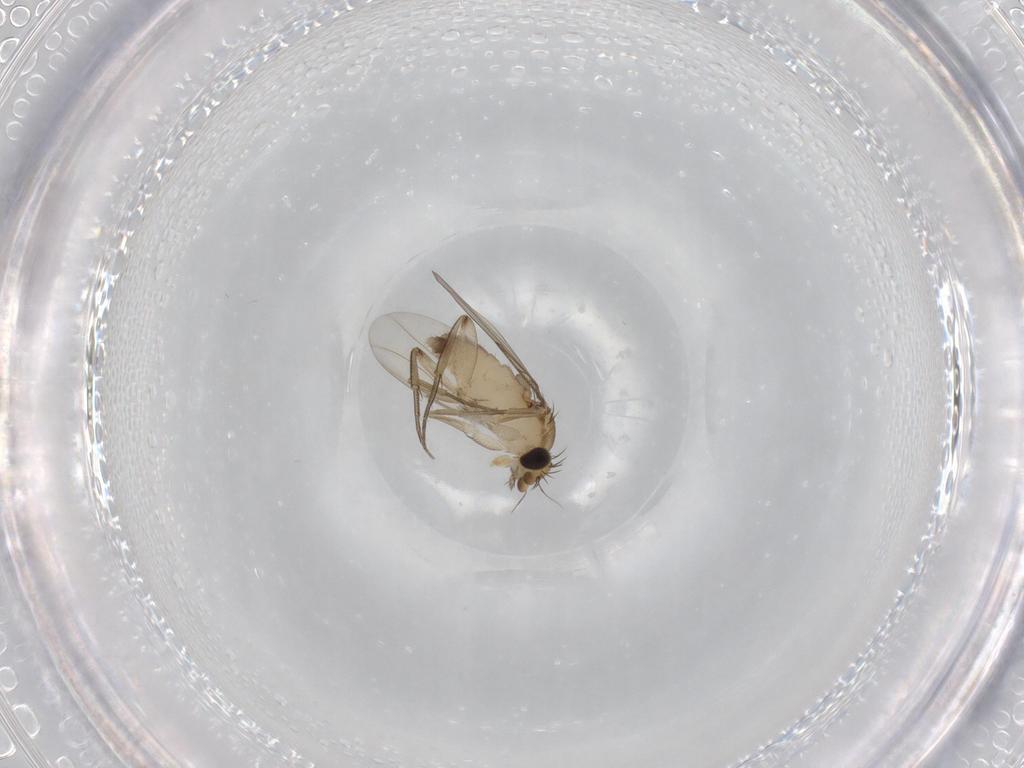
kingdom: Animalia
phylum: Arthropoda
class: Insecta
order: Diptera
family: Phoridae
